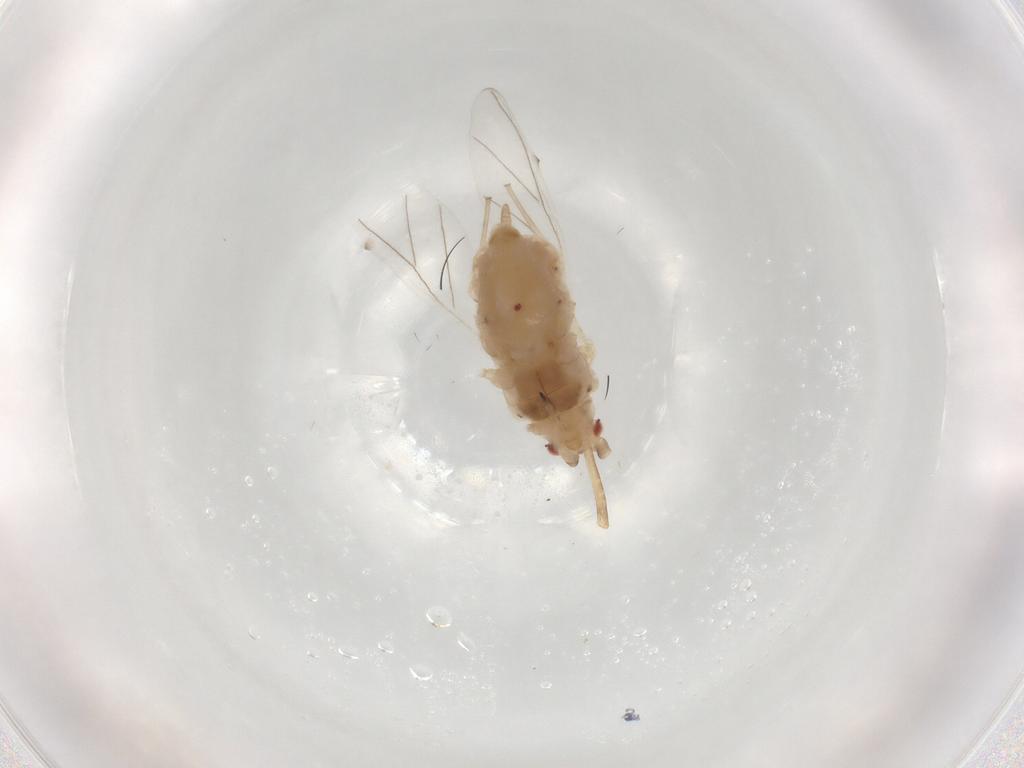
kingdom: Animalia
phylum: Arthropoda
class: Insecta
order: Hemiptera
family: Aphididae
